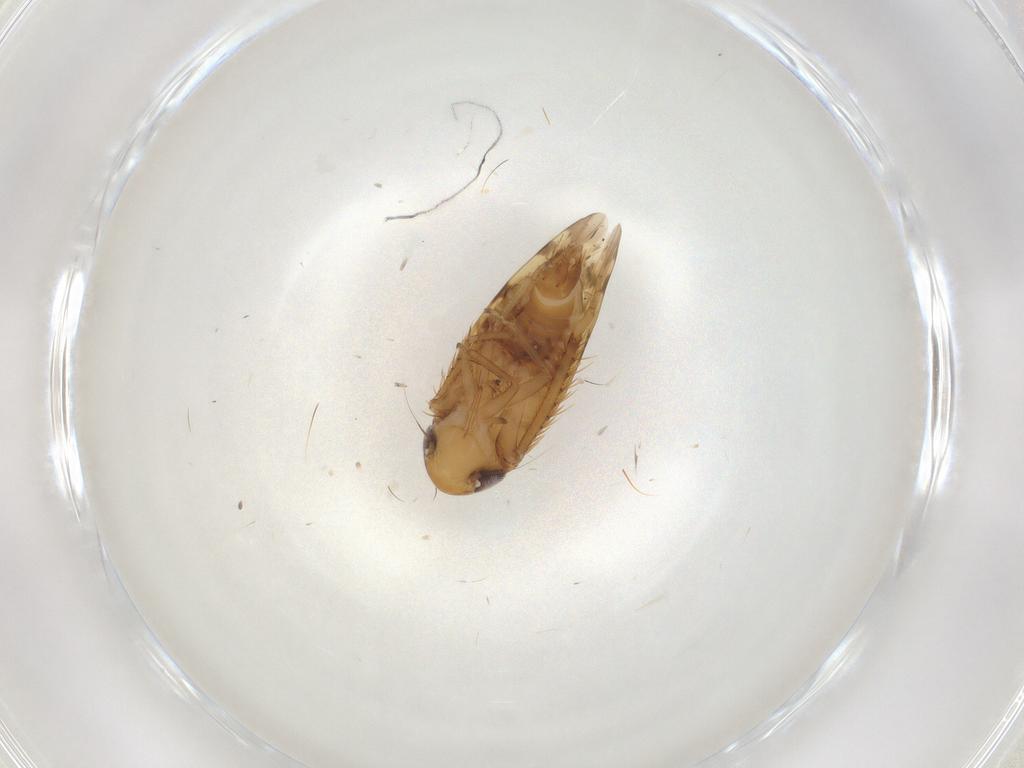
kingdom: Animalia
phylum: Arthropoda
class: Insecta
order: Hemiptera
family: Cicadellidae
